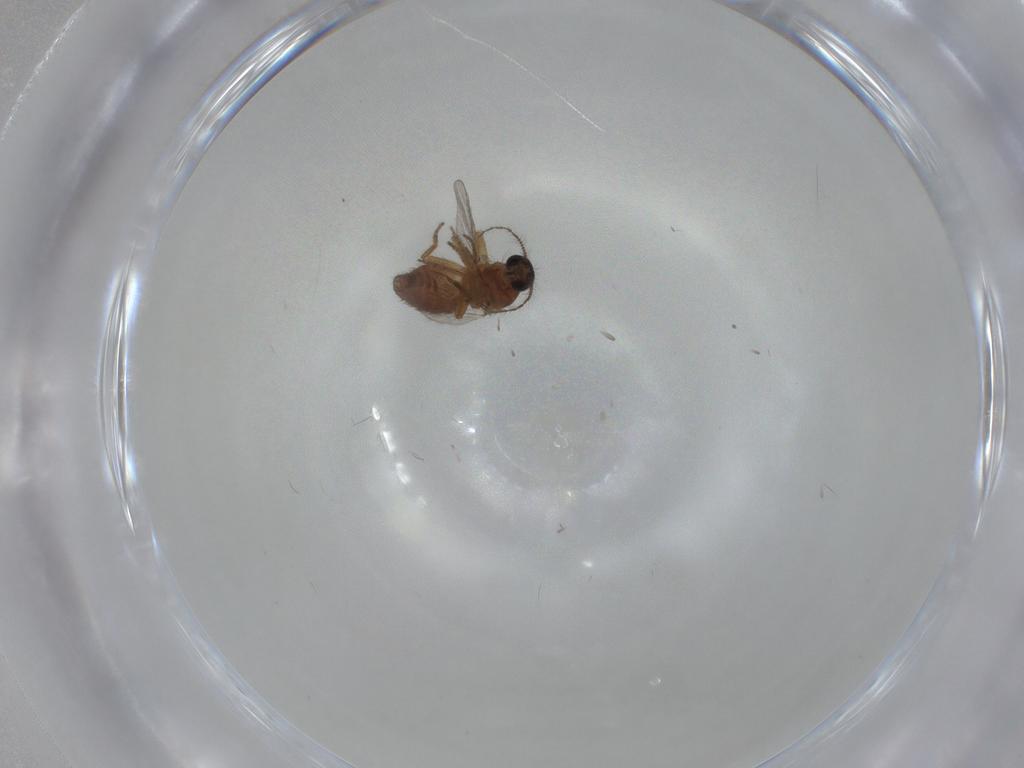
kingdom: Animalia
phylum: Arthropoda
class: Insecta
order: Diptera
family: Ceratopogonidae
